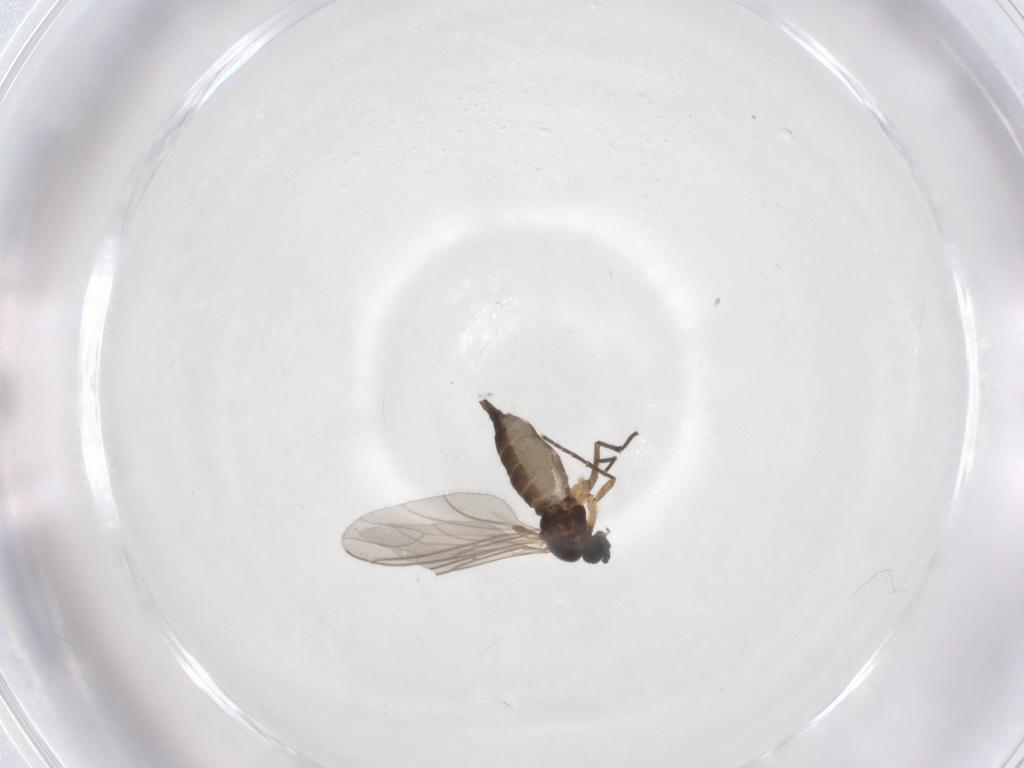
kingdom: Animalia
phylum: Arthropoda
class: Insecta
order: Diptera
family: Sciaridae
